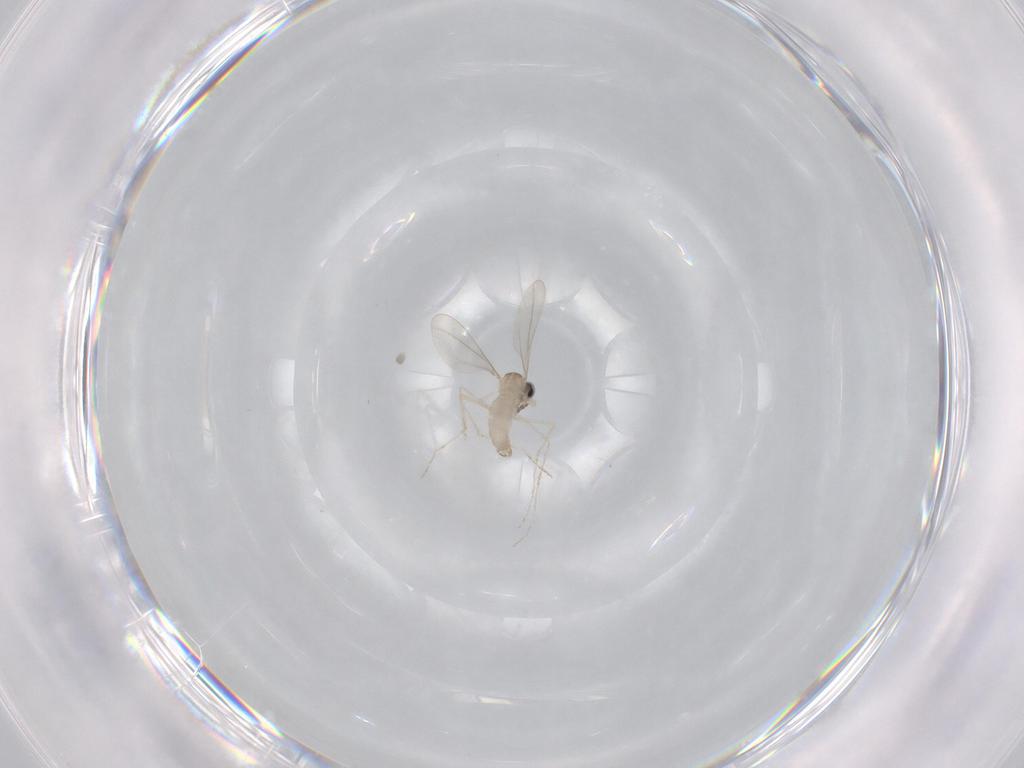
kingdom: Animalia
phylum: Arthropoda
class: Insecta
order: Diptera
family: Cecidomyiidae
